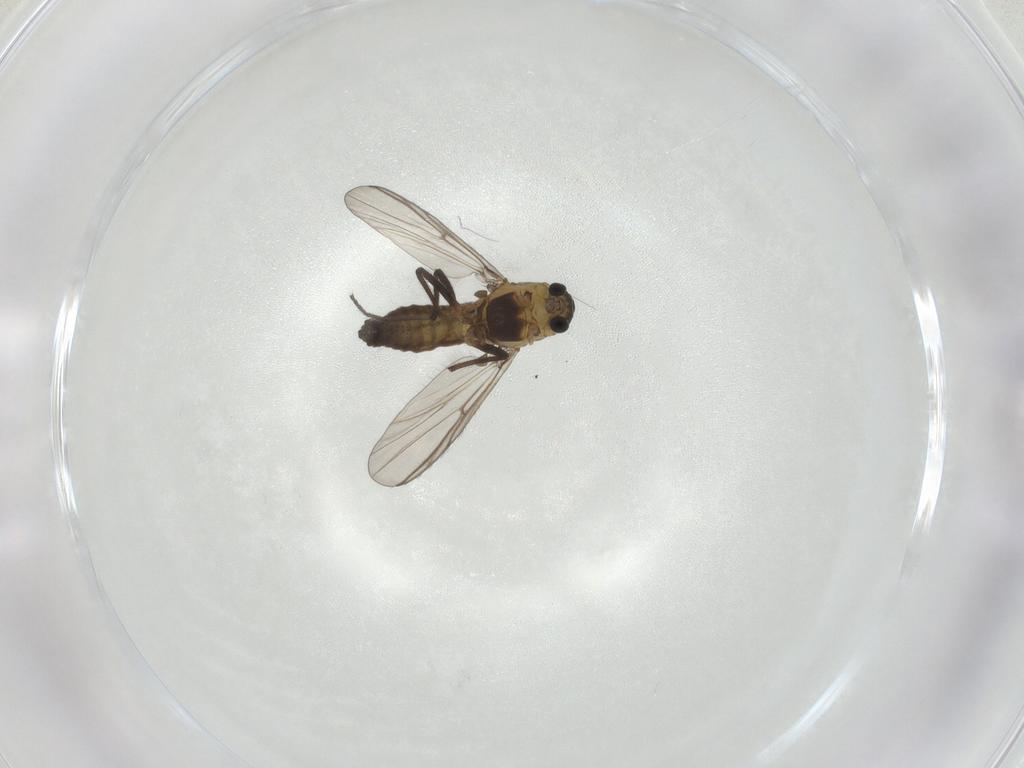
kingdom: Animalia
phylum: Arthropoda
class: Insecta
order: Diptera
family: Chironomidae
